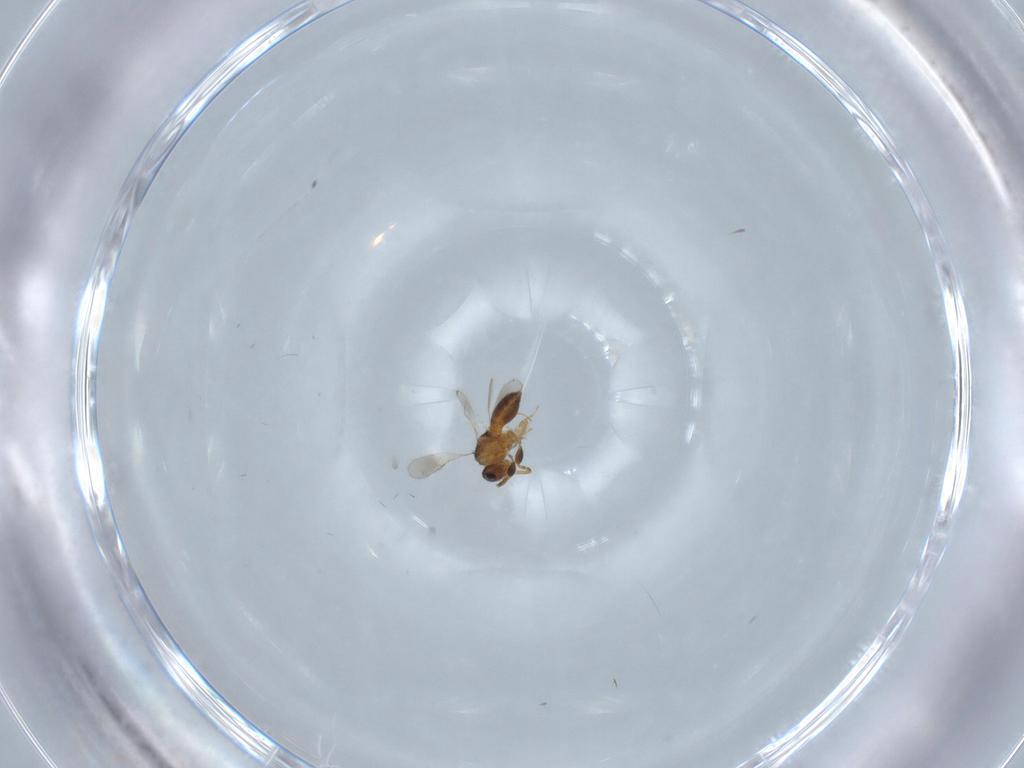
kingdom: Animalia
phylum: Arthropoda
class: Insecta
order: Hymenoptera
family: Scelionidae
